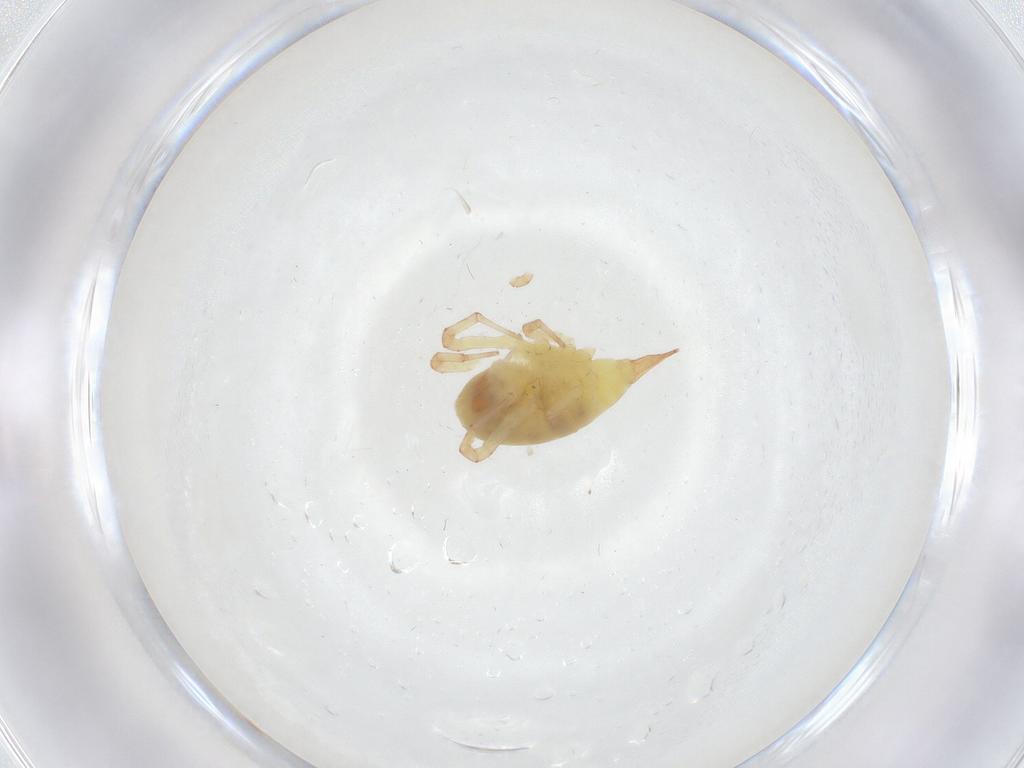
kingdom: Animalia
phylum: Arthropoda
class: Arachnida
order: Trombidiformes
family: Bdellidae
